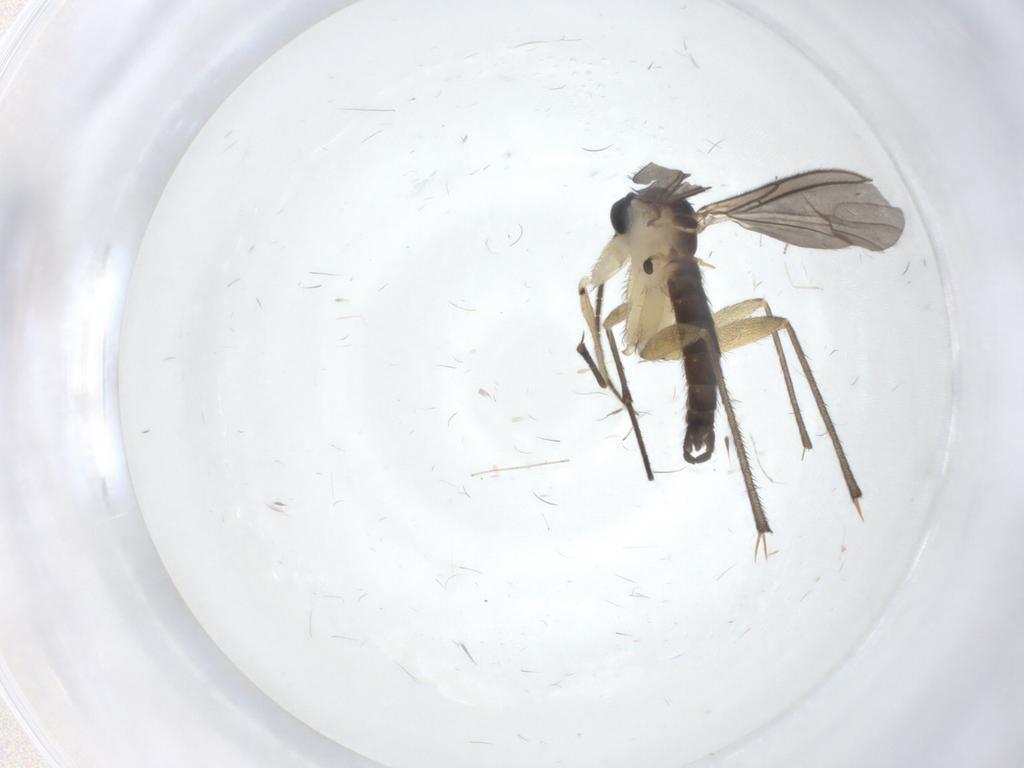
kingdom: Animalia
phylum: Arthropoda
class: Insecta
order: Diptera
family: Sciaridae
